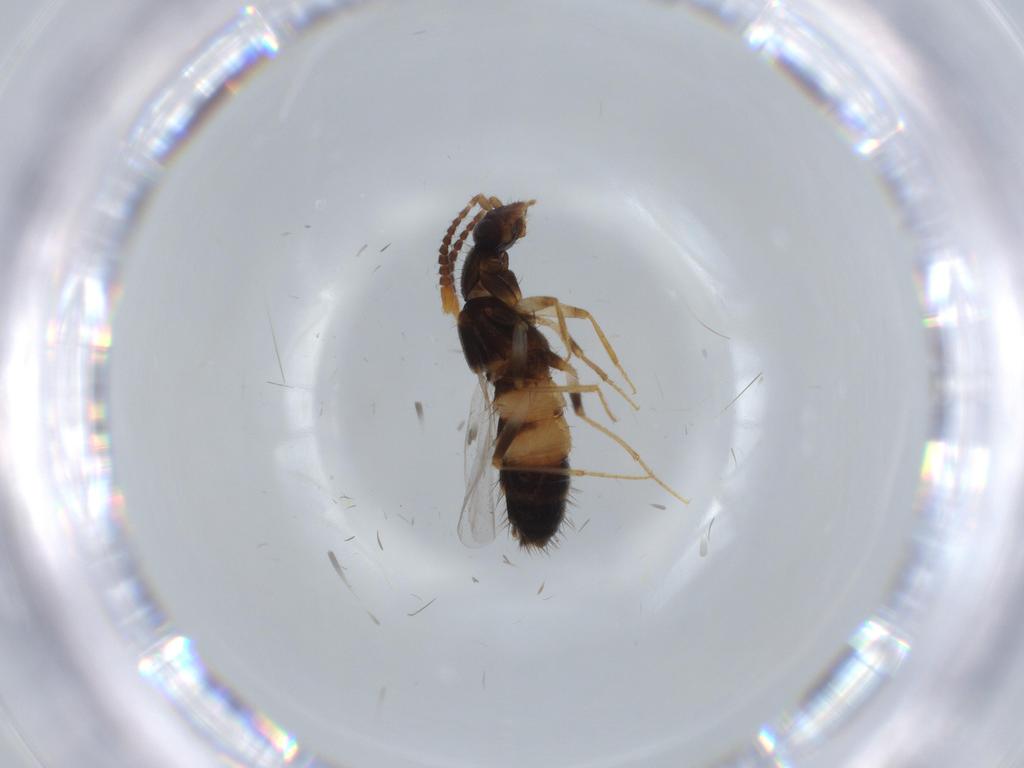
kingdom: Animalia
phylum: Arthropoda
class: Insecta
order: Coleoptera
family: Staphylinidae
